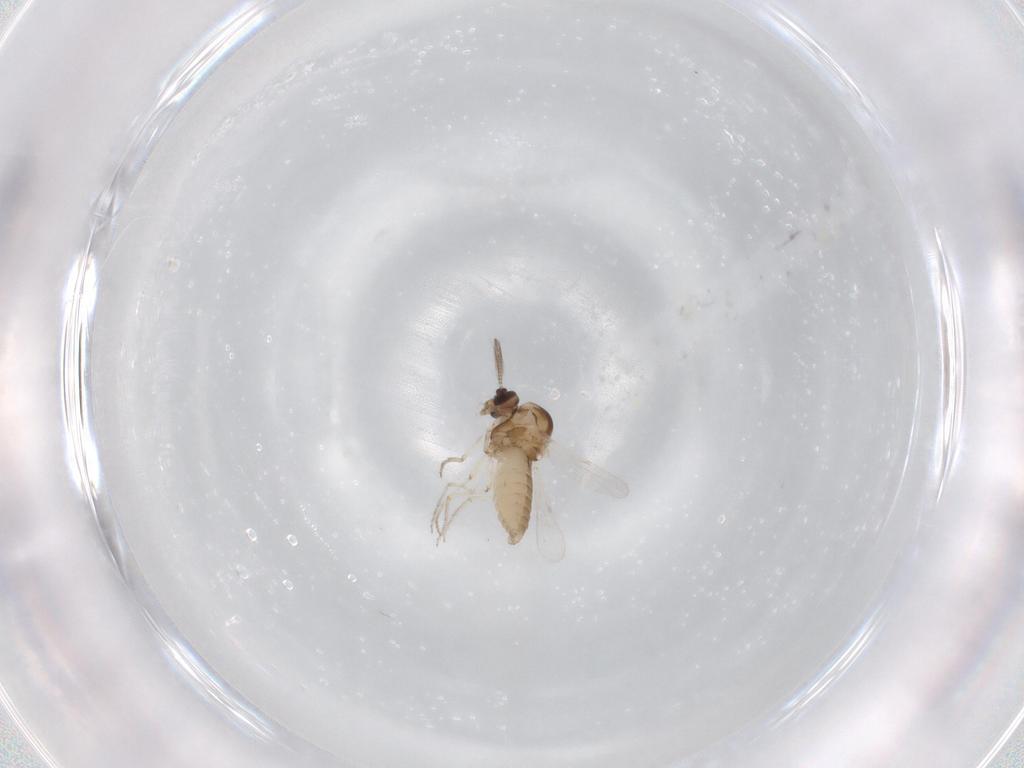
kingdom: Animalia
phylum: Arthropoda
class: Insecta
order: Diptera
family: Ceratopogonidae
